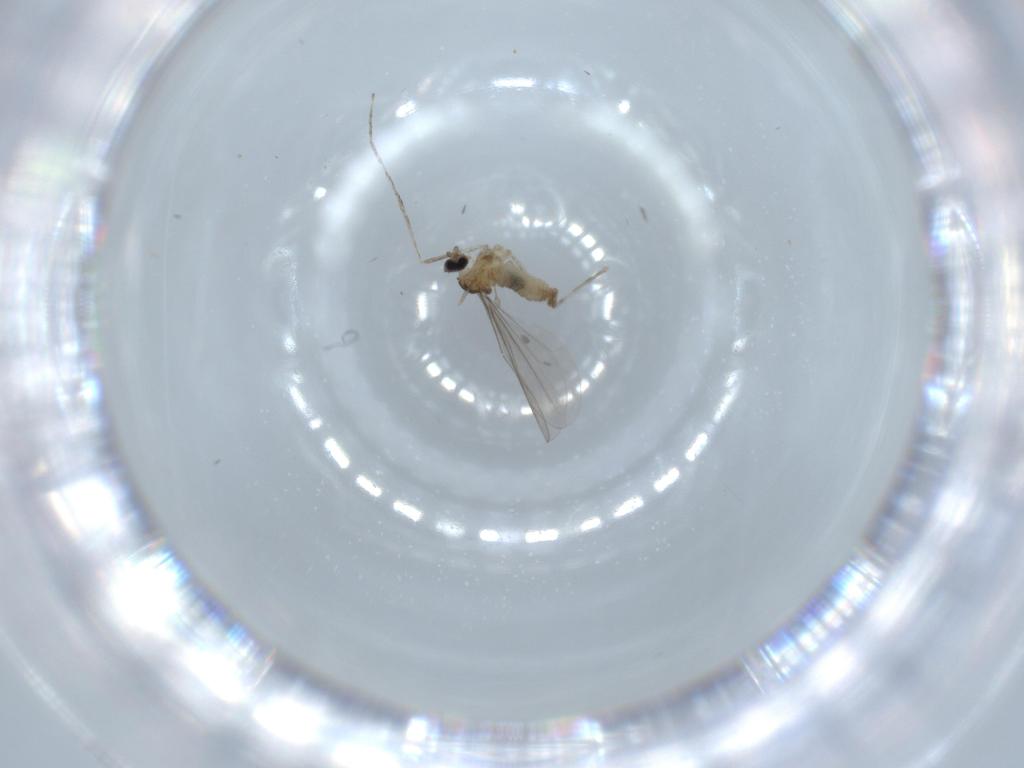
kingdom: Animalia
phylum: Arthropoda
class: Insecta
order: Diptera
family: Cecidomyiidae
